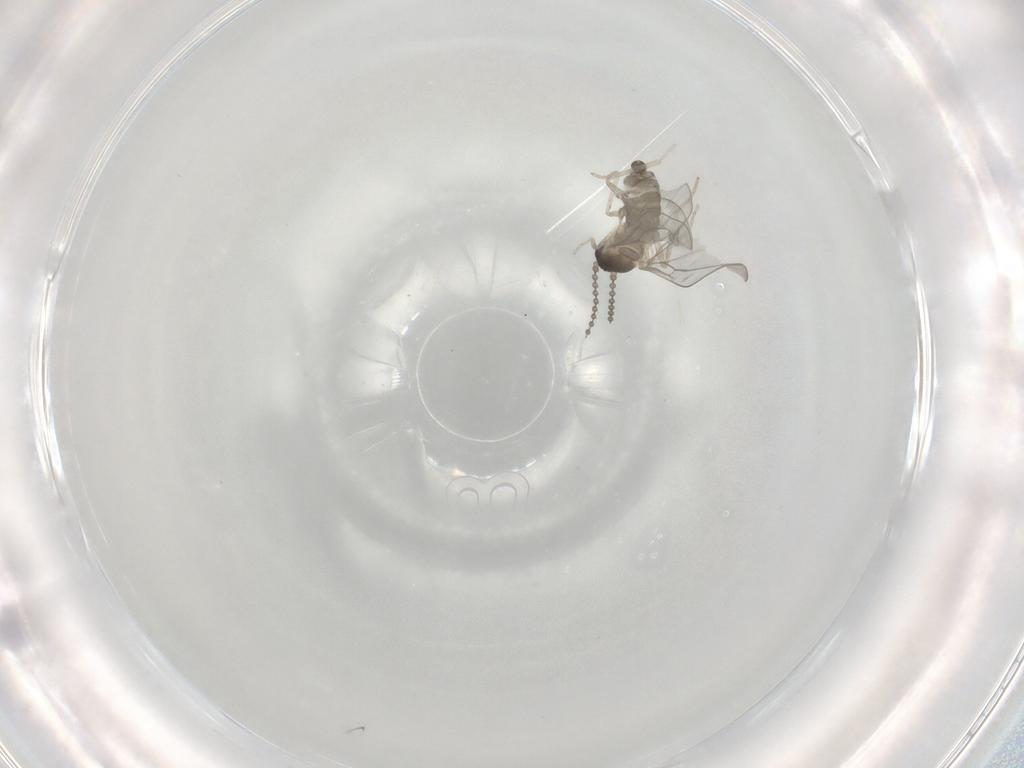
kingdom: Animalia
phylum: Arthropoda
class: Insecta
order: Diptera
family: Cecidomyiidae
